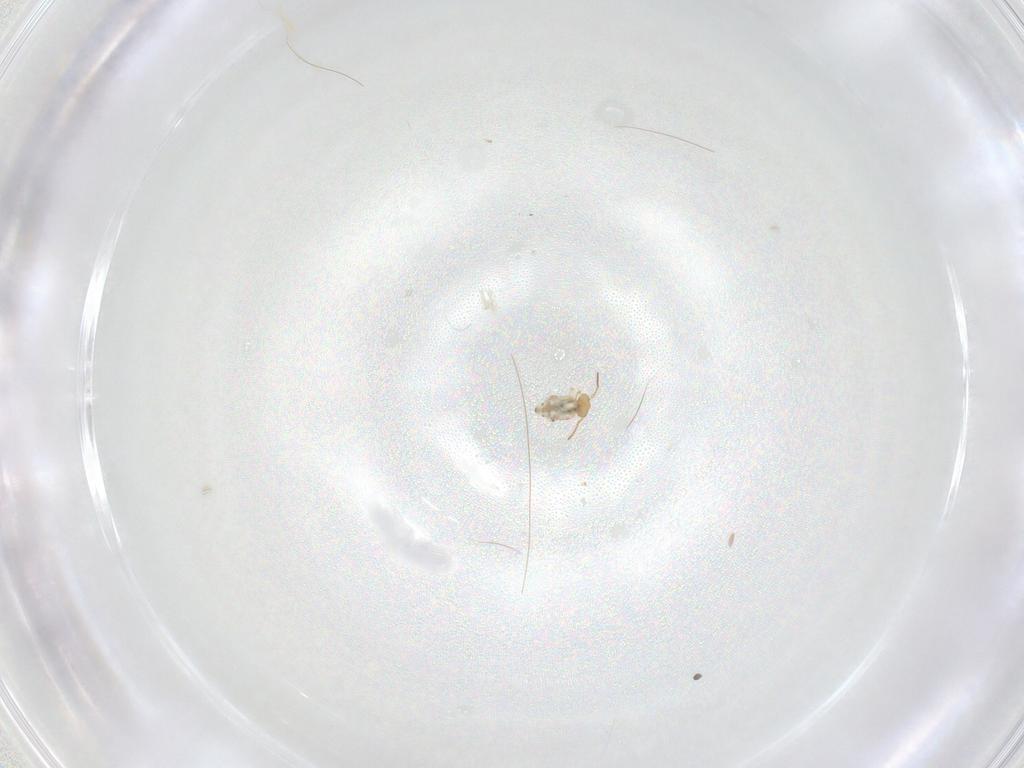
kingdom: Animalia
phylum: Arthropoda
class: Collembola
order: Symphypleona
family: Bourletiellidae
